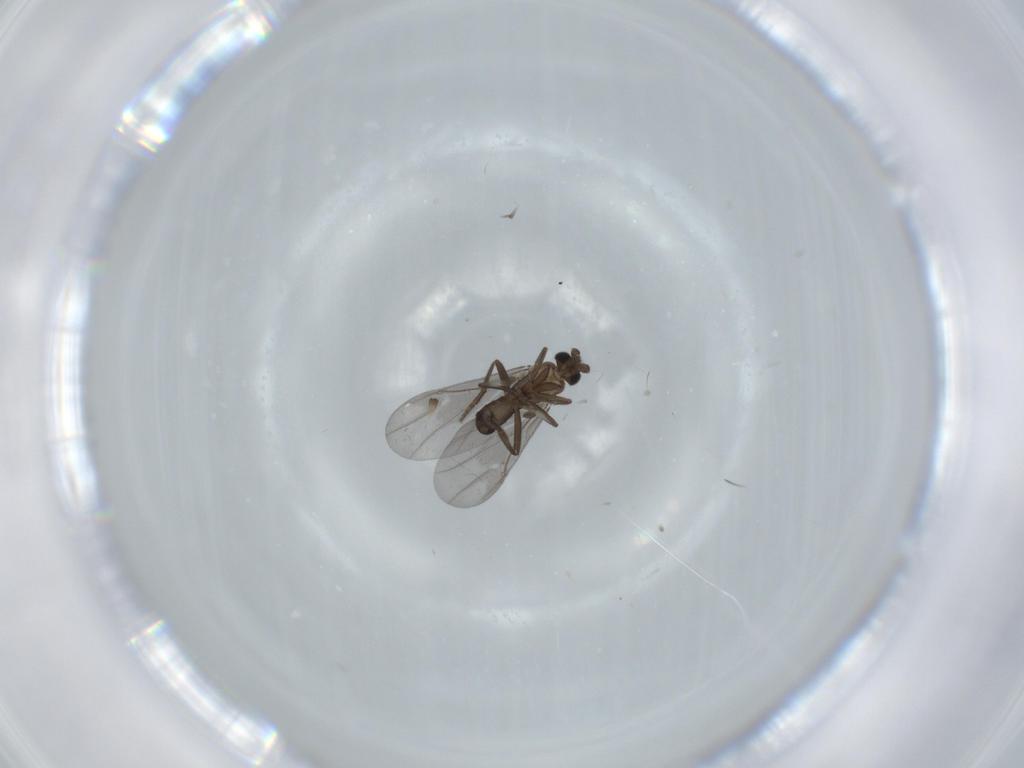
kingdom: Animalia
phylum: Arthropoda
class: Insecta
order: Diptera
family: Phoridae
